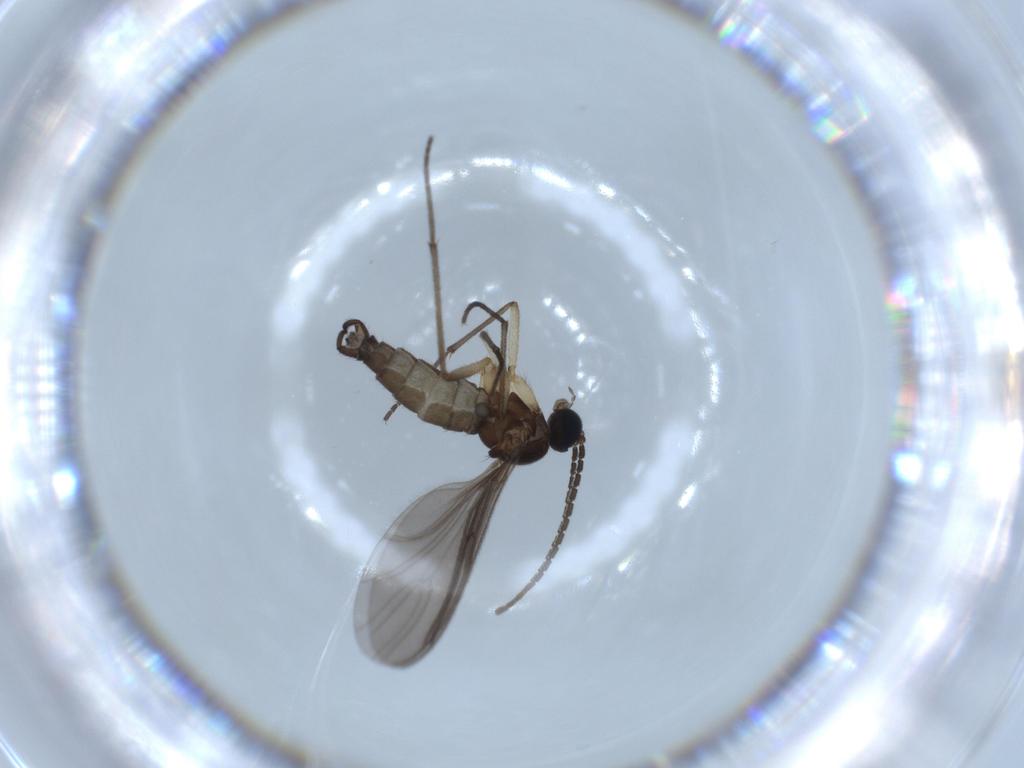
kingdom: Animalia
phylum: Arthropoda
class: Insecta
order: Diptera
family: Sciaridae
